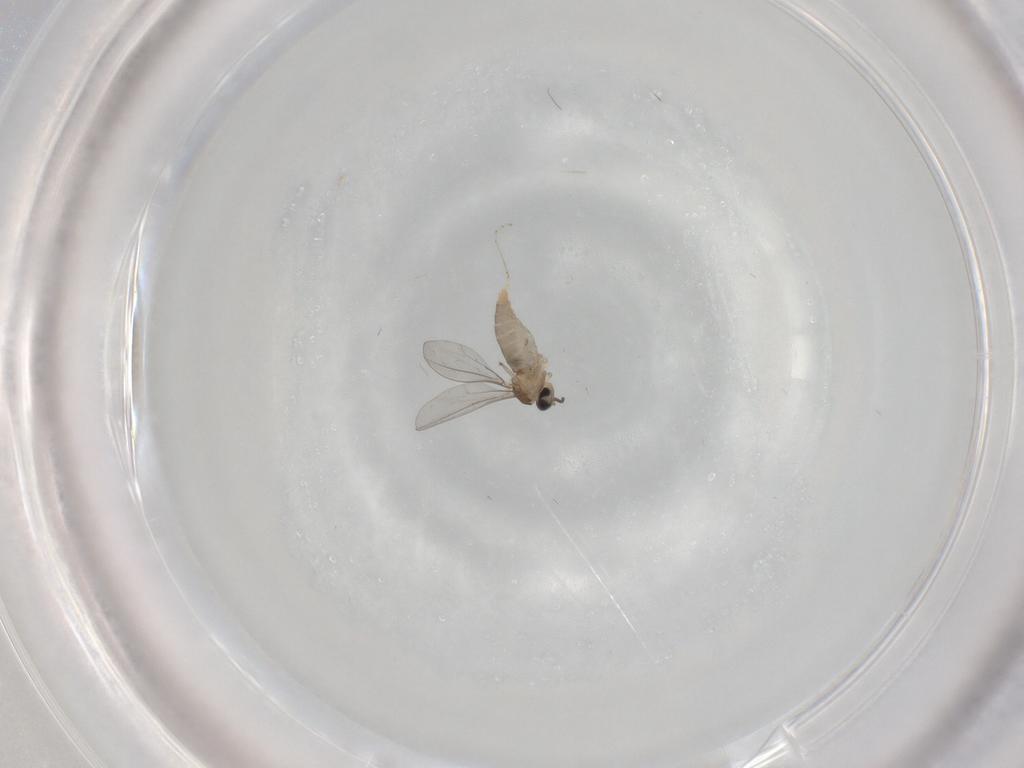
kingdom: Animalia
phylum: Arthropoda
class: Insecta
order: Diptera
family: Cecidomyiidae
